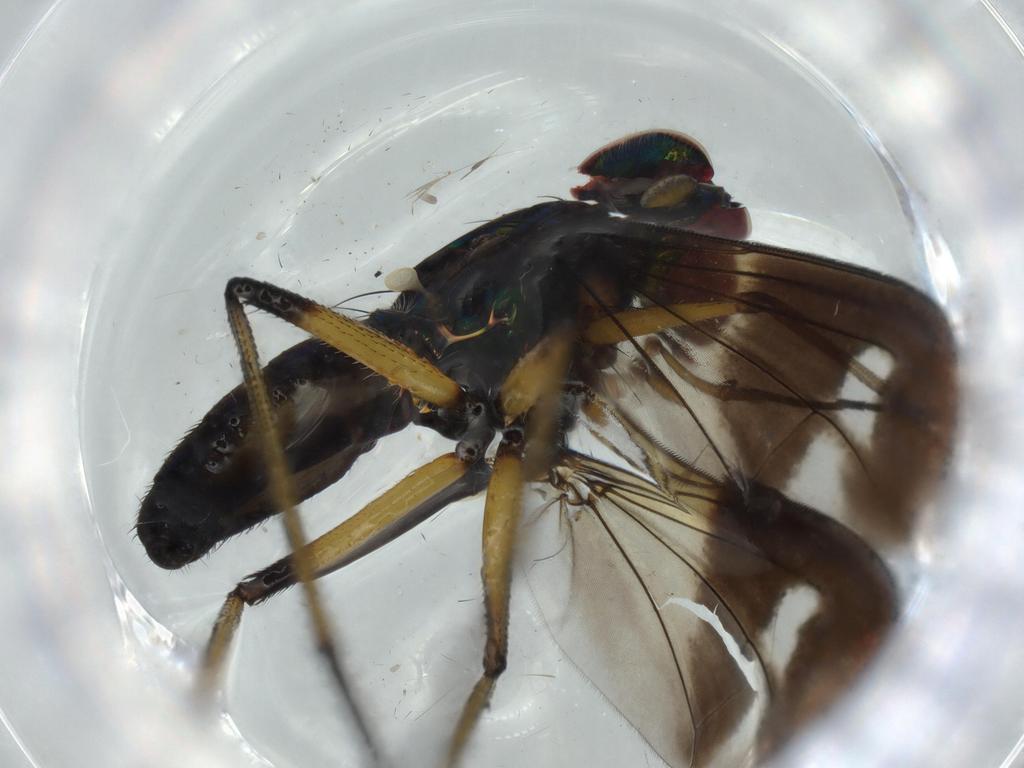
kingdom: Animalia
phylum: Arthropoda
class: Insecta
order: Diptera
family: Dolichopodidae
